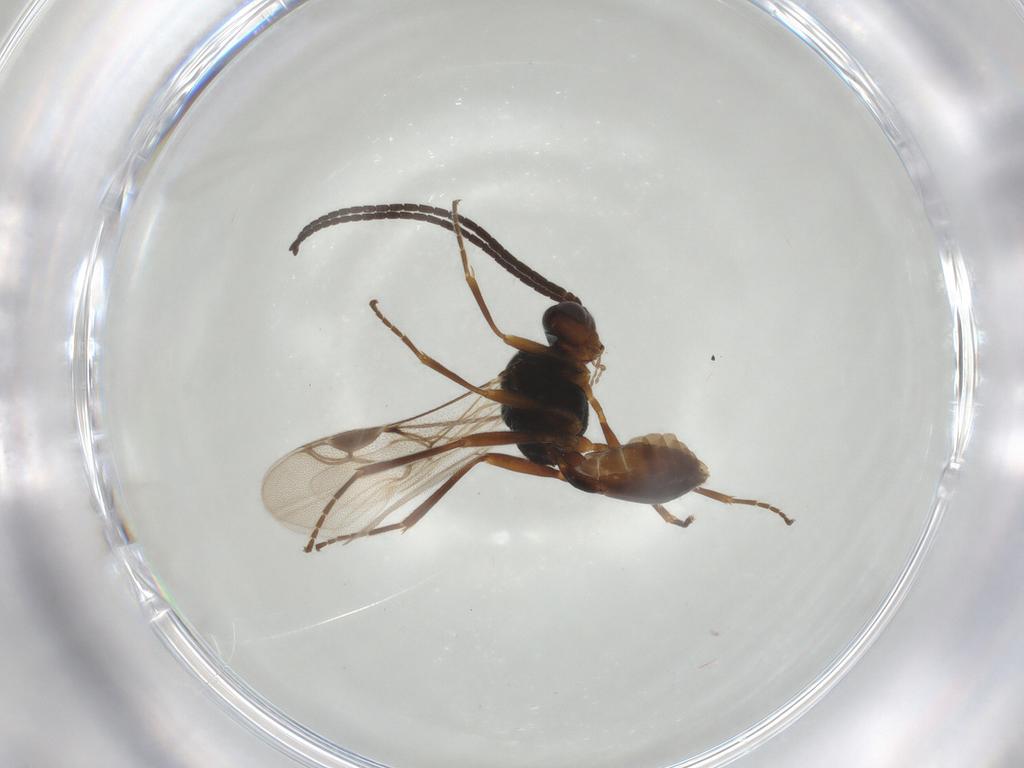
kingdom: Animalia
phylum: Arthropoda
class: Insecta
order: Hymenoptera
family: Braconidae
